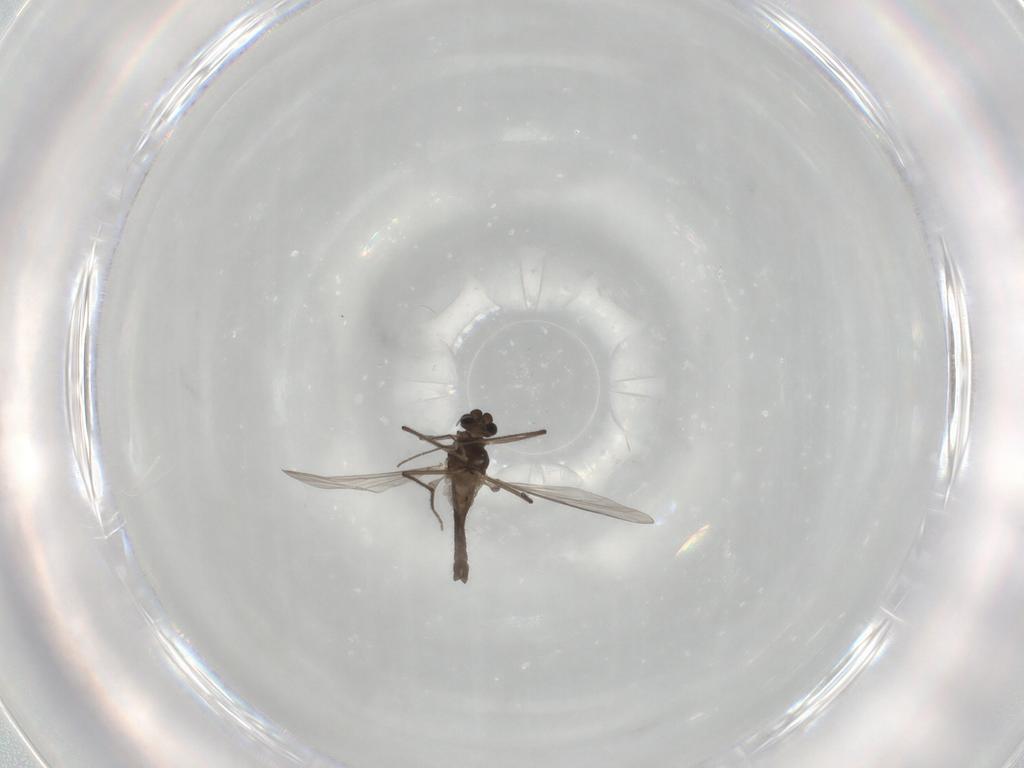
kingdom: Animalia
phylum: Arthropoda
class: Insecta
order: Diptera
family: Chironomidae
